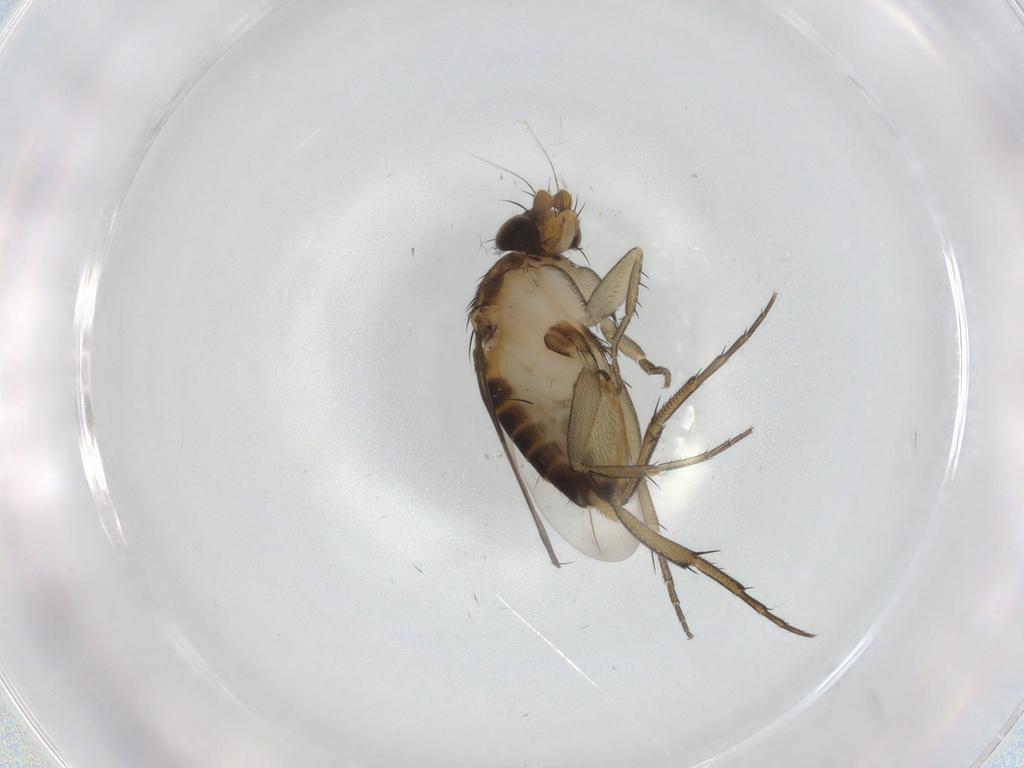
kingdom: Animalia
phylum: Arthropoda
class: Insecta
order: Diptera
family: Phoridae
